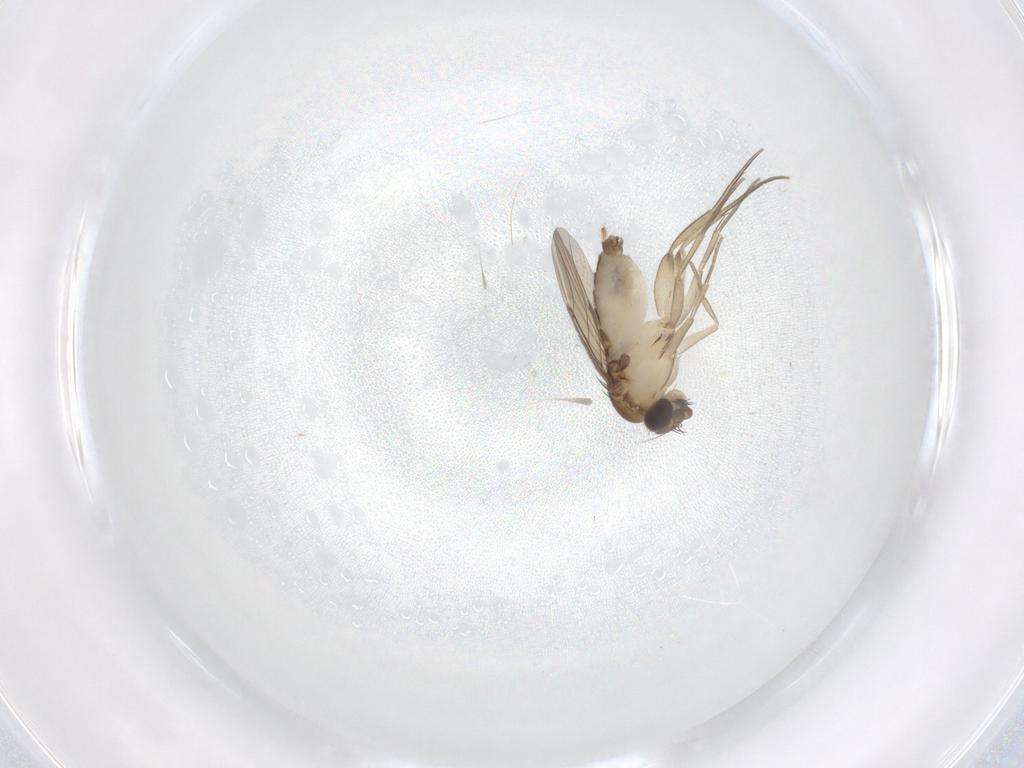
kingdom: Animalia
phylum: Arthropoda
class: Insecta
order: Diptera
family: Phoridae
